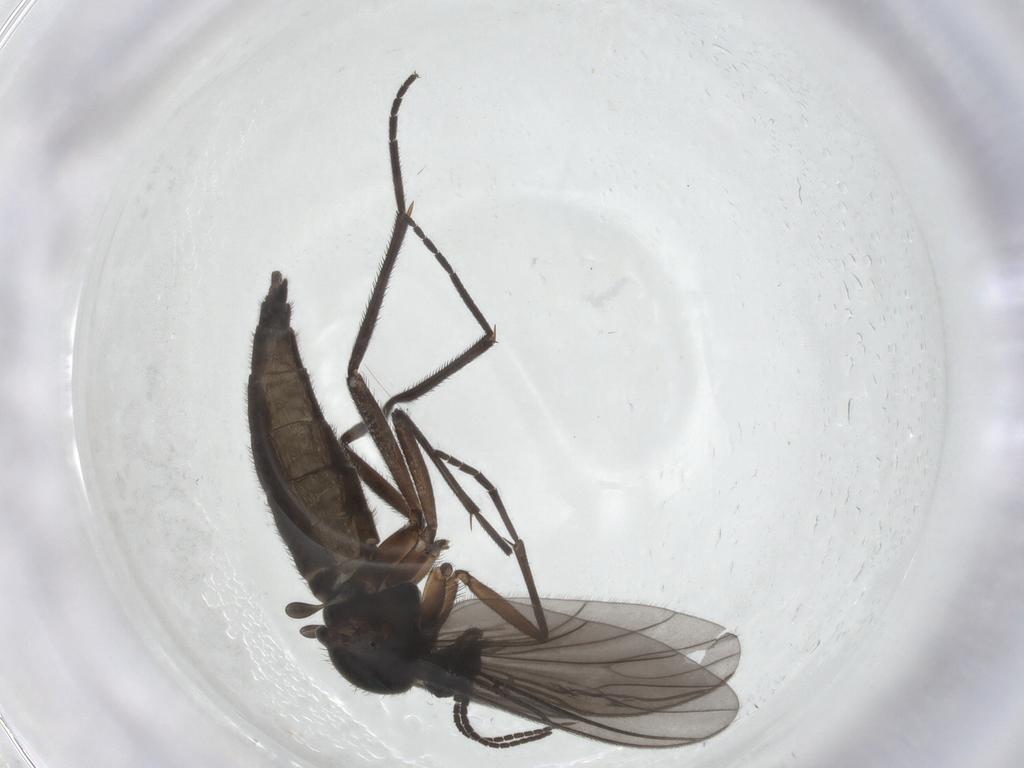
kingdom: Animalia
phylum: Arthropoda
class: Insecta
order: Diptera
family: Sciaridae
